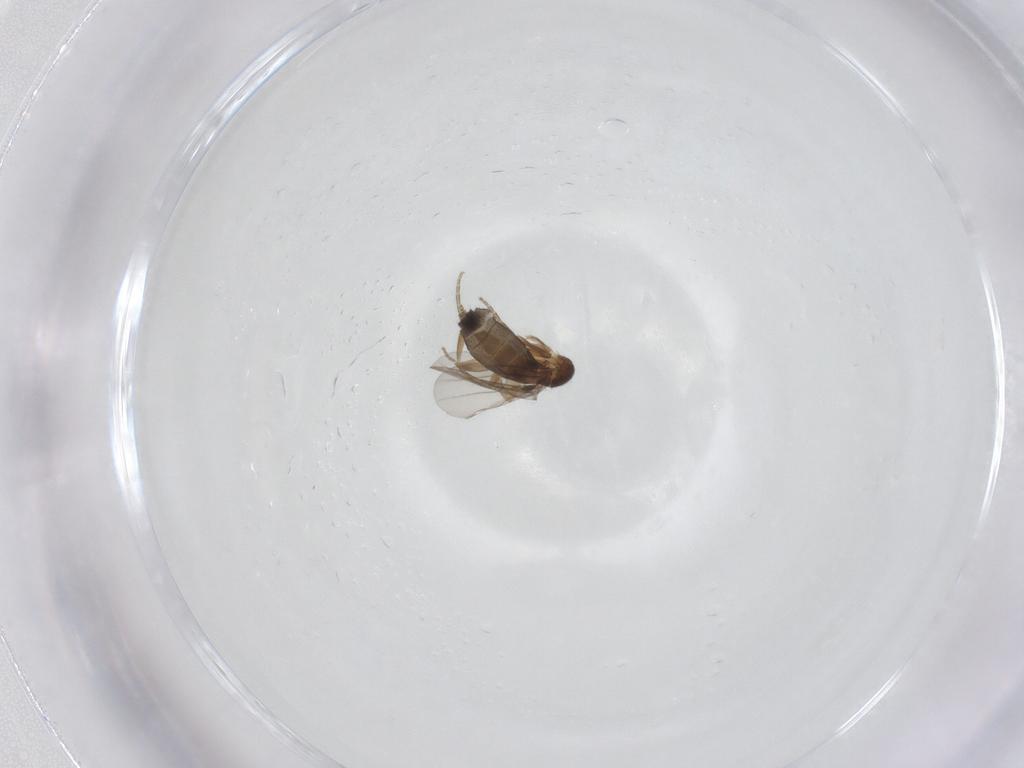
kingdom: Animalia
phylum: Arthropoda
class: Insecta
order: Diptera
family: Phoridae
